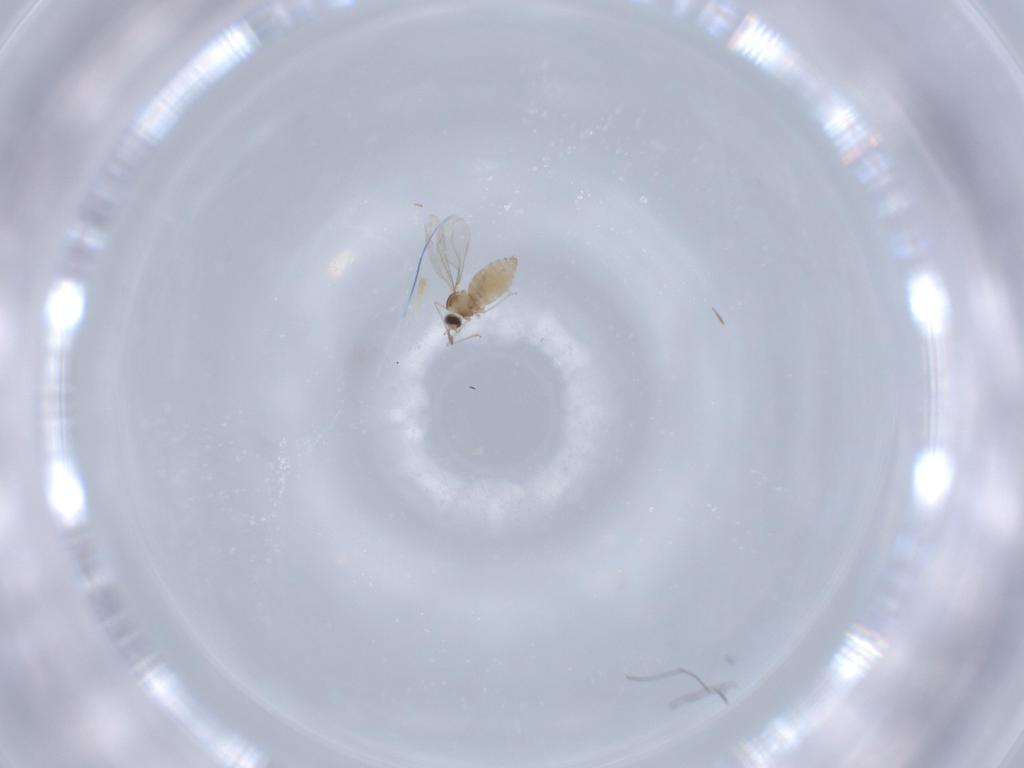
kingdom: Animalia
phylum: Arthropoda
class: Insecta
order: Diptera
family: Cecidomyiidae
